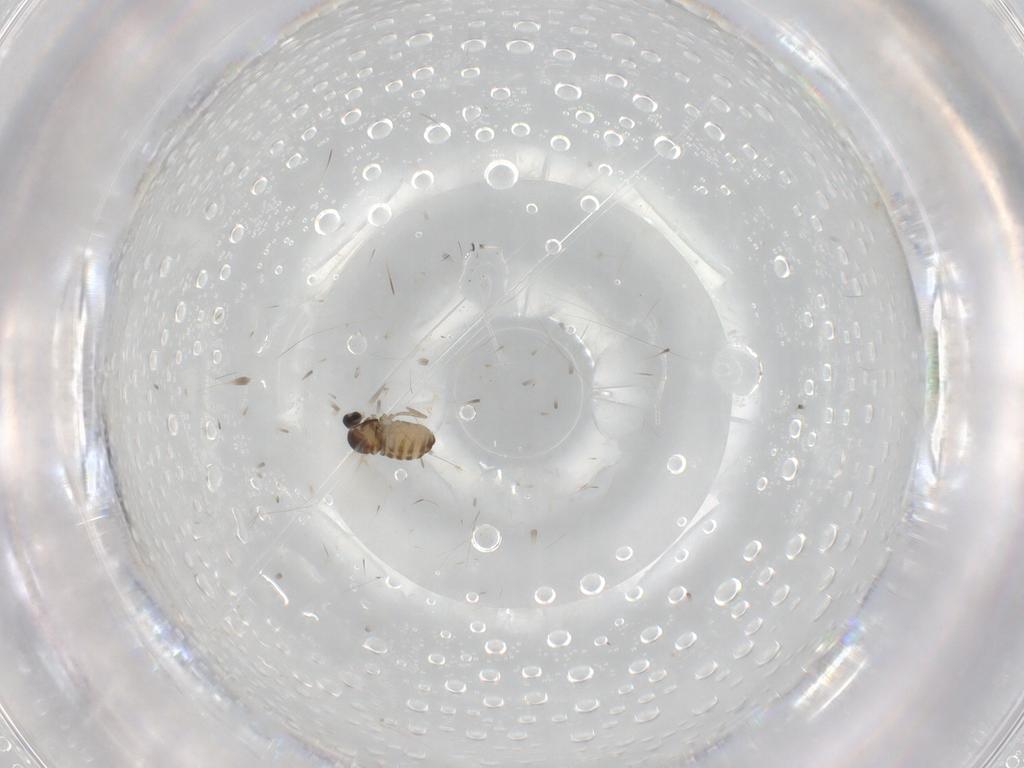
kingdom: Animalia
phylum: Arthropoda
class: Insecta
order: Diptera
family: Cecidomyiidae
